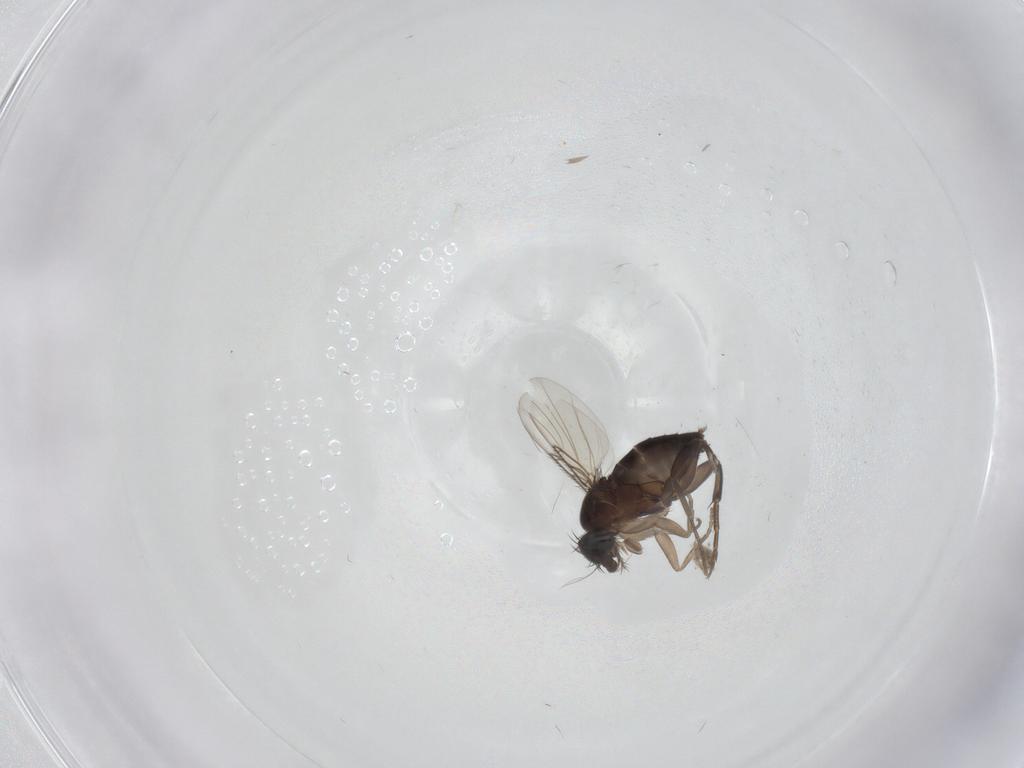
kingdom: Animalia
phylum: Arthropoda
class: Insecta
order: Diptera
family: Phoridae
